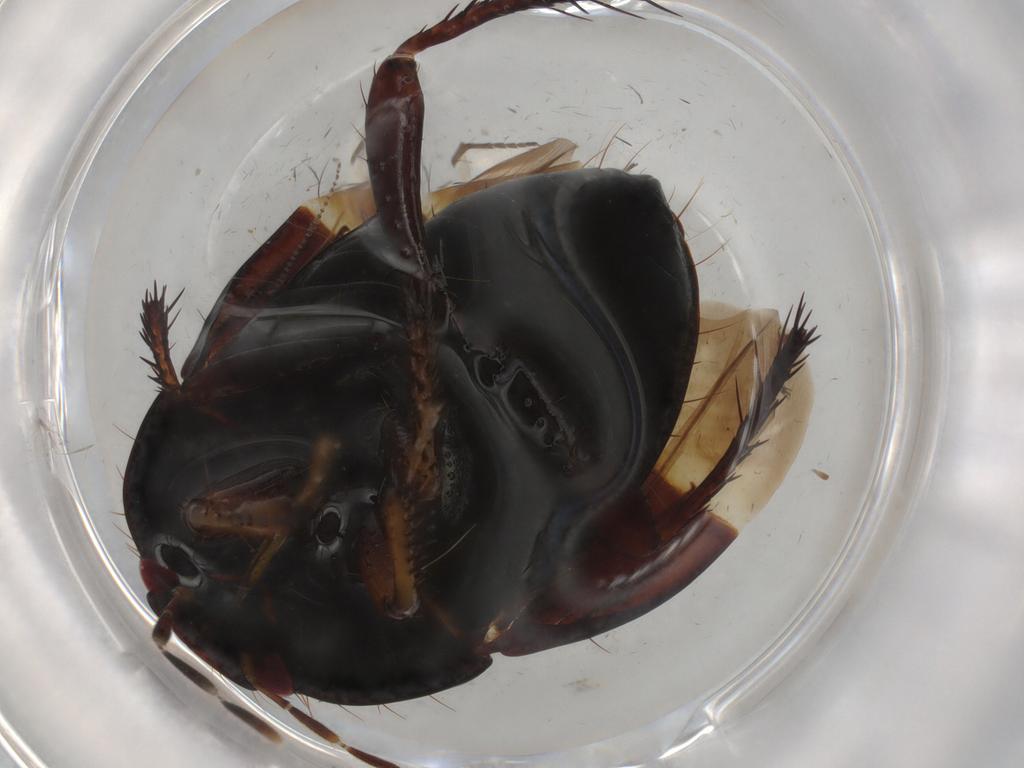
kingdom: Animalia
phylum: Arthropoda
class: Insecta
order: Hemiptera
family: Cydnidae
